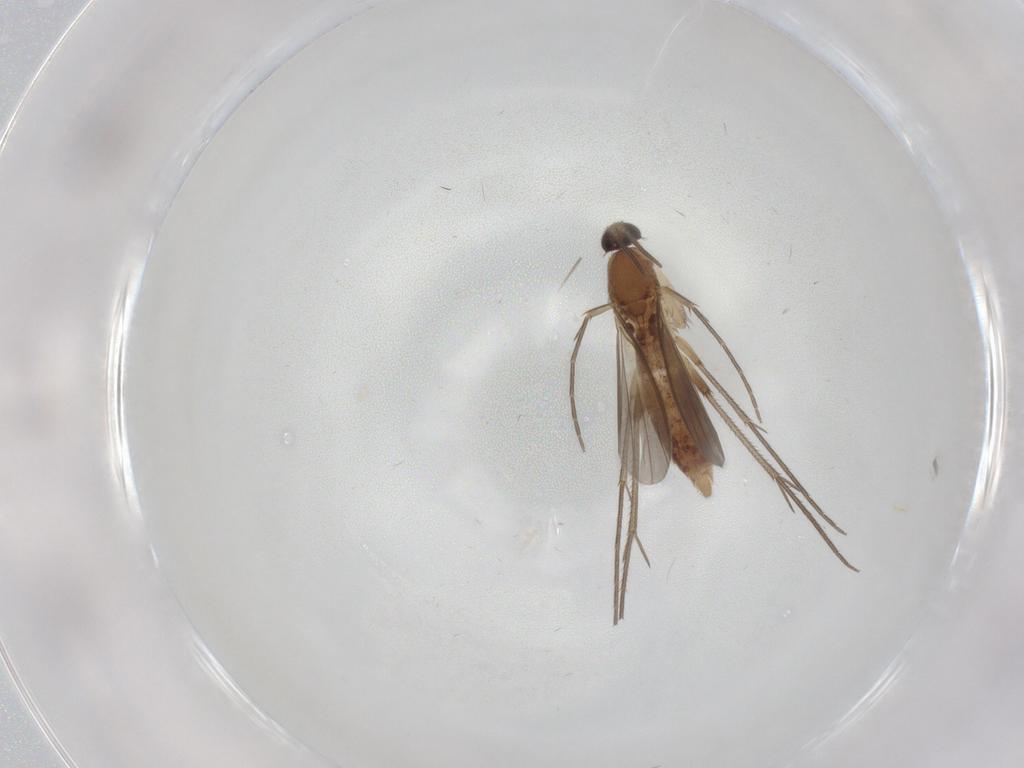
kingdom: Animalia
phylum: Arthropoda
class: Insecta
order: Diptera
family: Mycetophilidae
